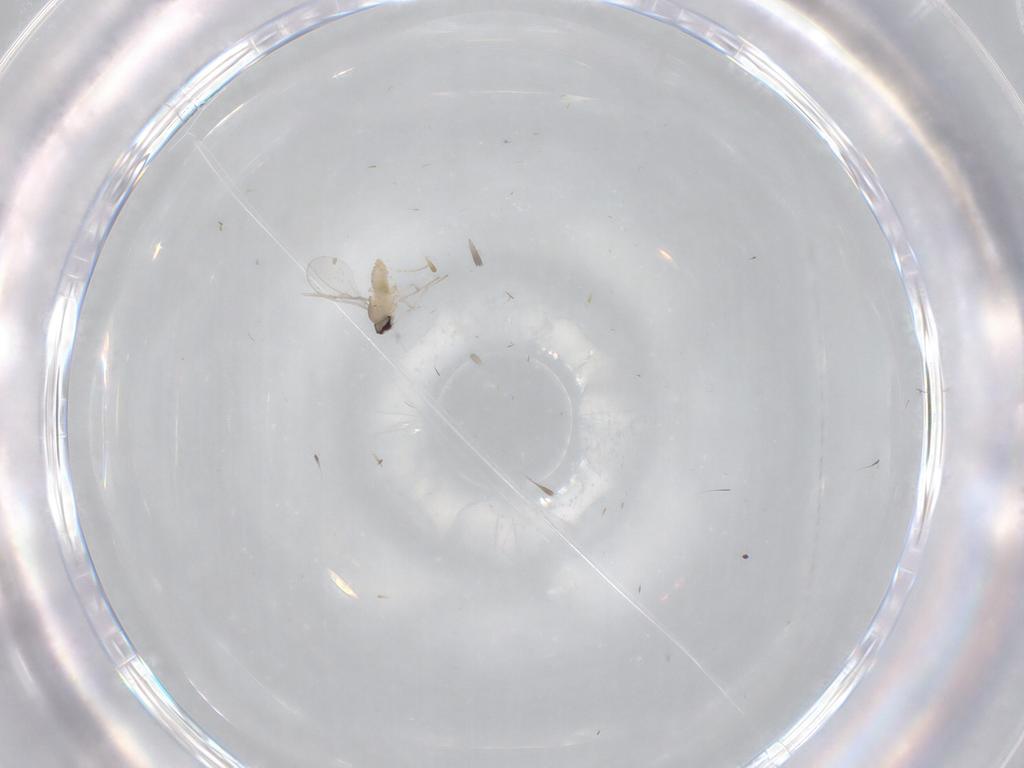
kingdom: Animalia
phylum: Arthropoda
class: Insecta
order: Diptera
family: Cecidomyiidae
